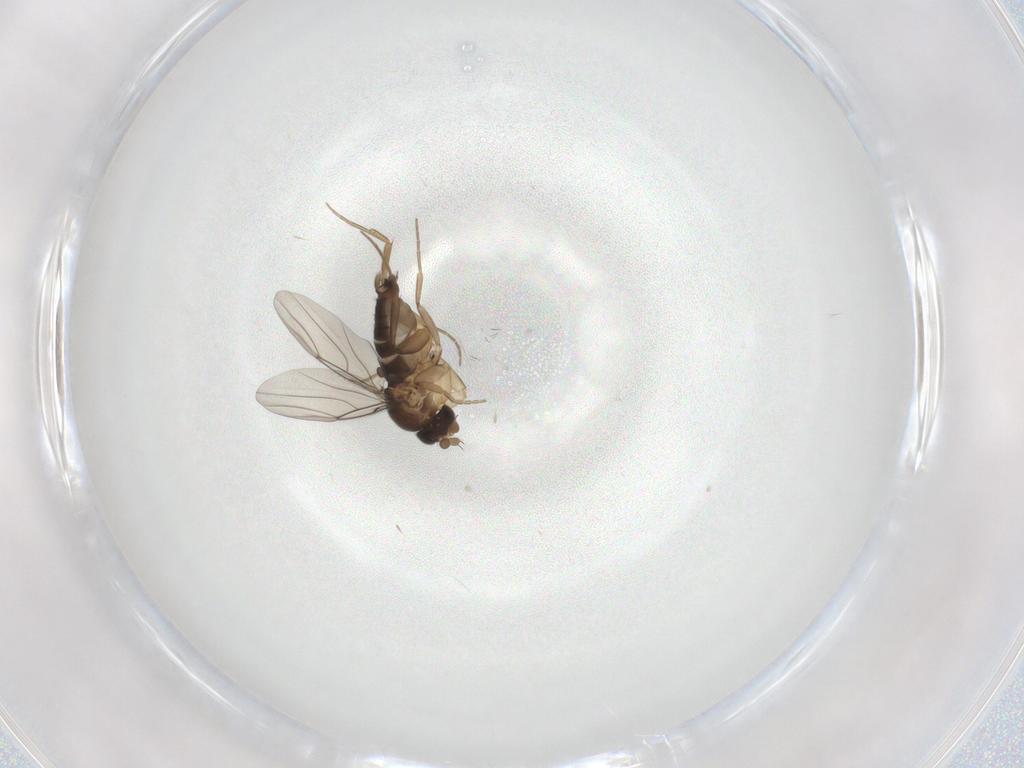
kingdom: Animalia
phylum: Arthropoda
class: Insecta
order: Diptera
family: Phoridae
